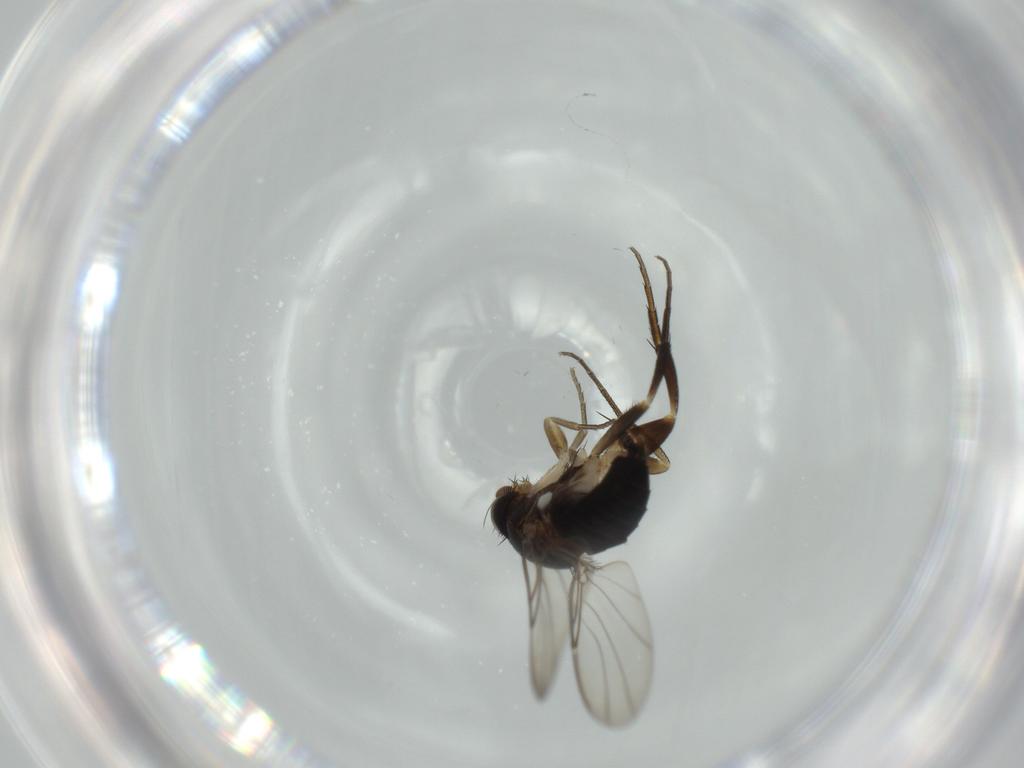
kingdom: Animalia
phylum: Arthropoda
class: Insecta
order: Diptera
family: Phoridae
